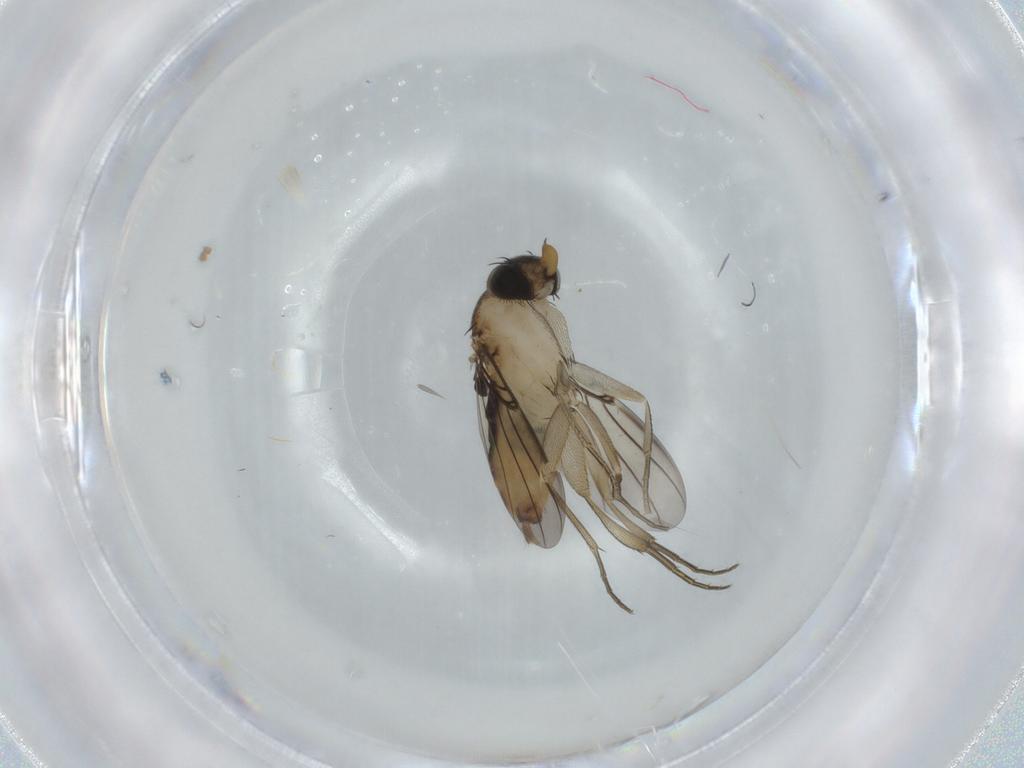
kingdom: Animalia
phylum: Arthropoda
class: Insecta
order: Diptera
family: Phoridae
